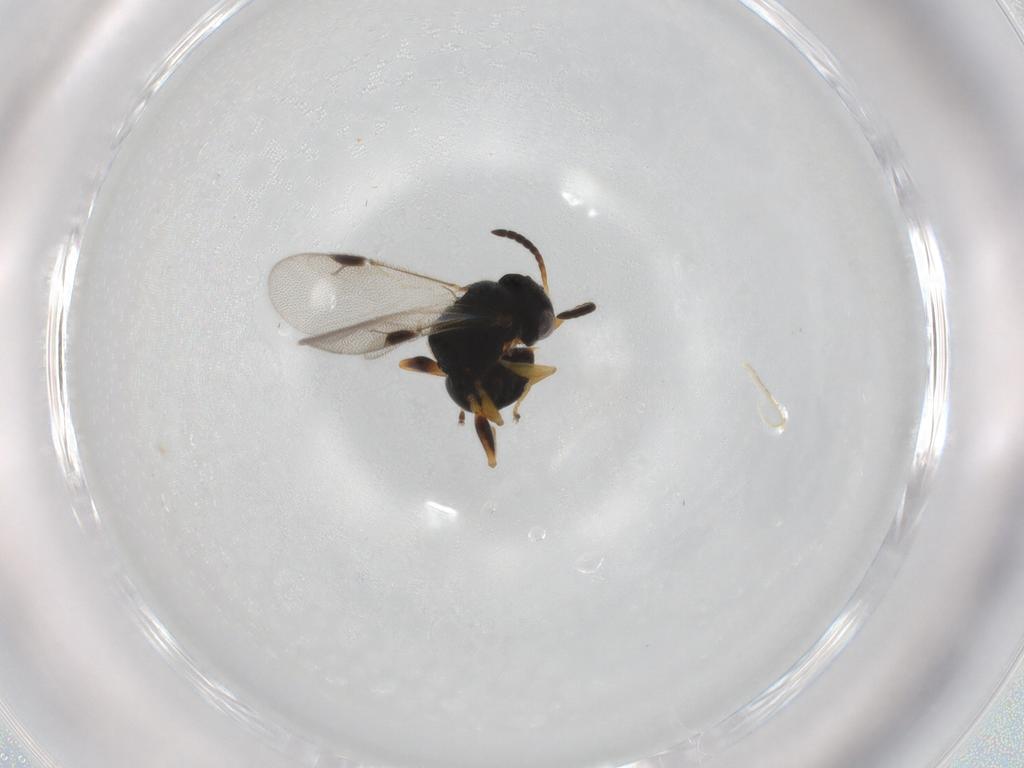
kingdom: Animalia
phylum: Arthropoda
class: Insecta
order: Hymenoptera
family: Dryinidae
